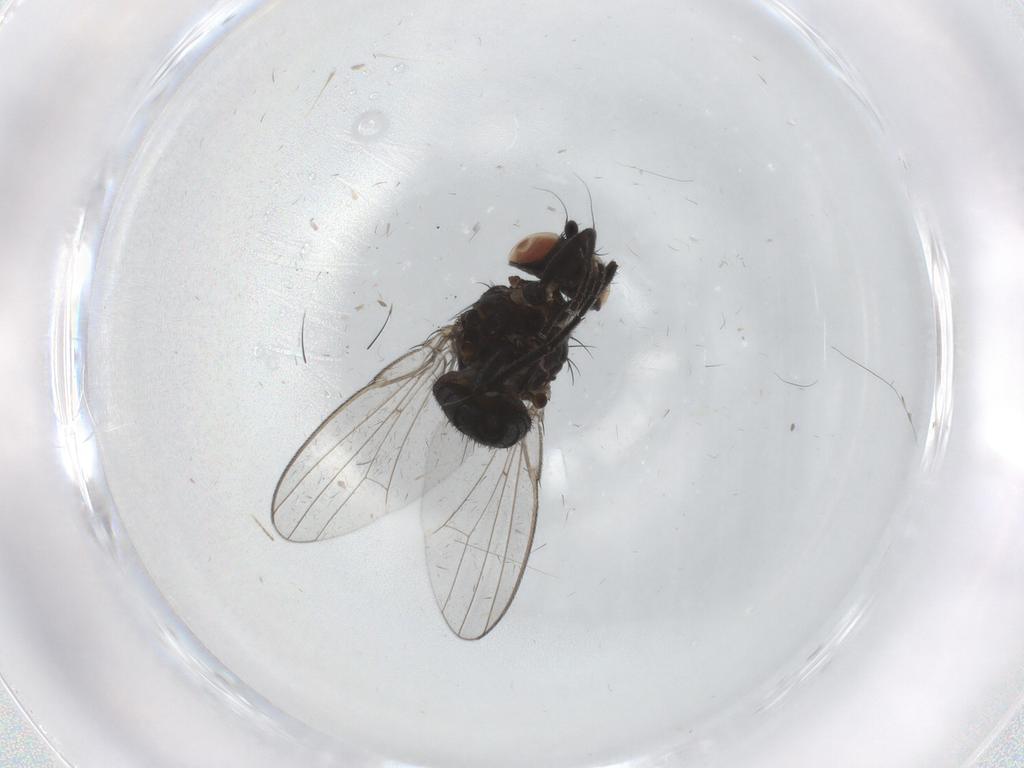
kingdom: Animalia
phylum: Arthropoda
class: Insecta
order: Diptera
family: Milichiidae
